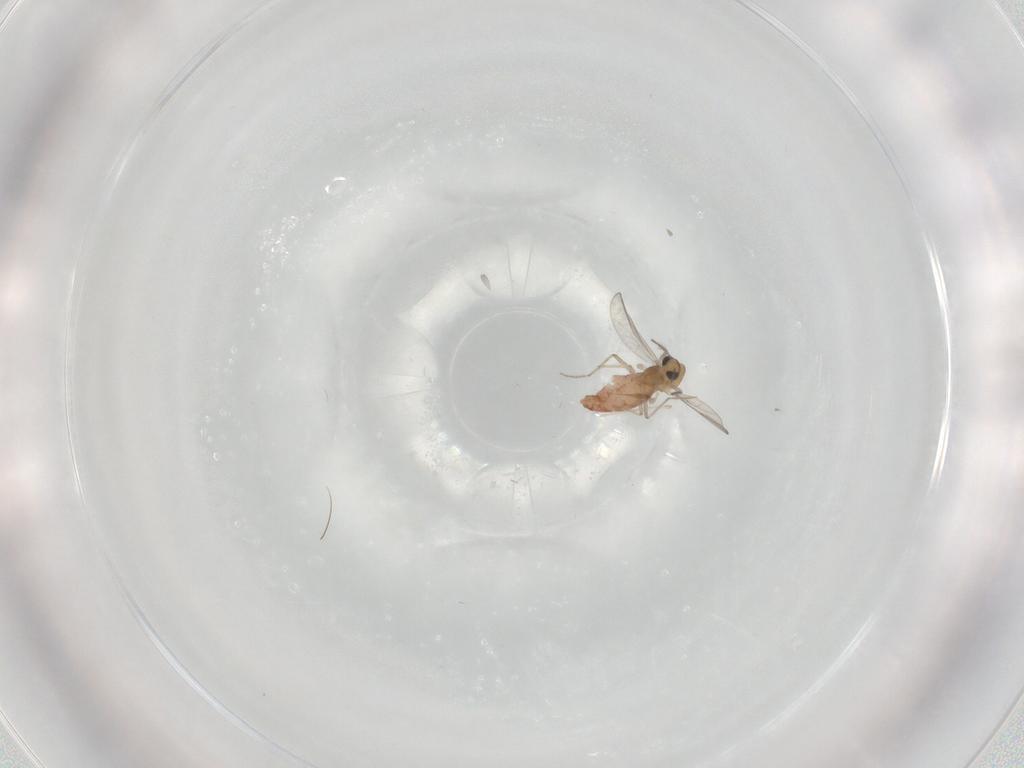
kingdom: Animalia
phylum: Arthropoda
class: Insecta
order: Diptera
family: Chironomidae
